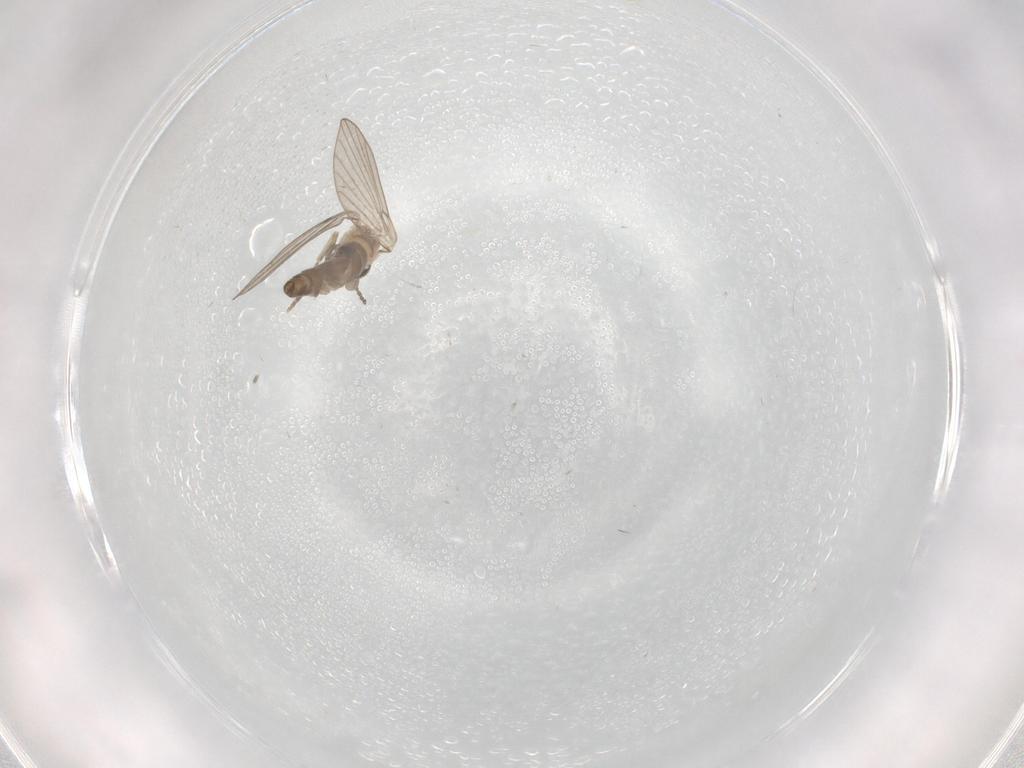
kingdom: Animalia
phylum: Arthropoda
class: Insecta
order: Diptera
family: Psychodidae
